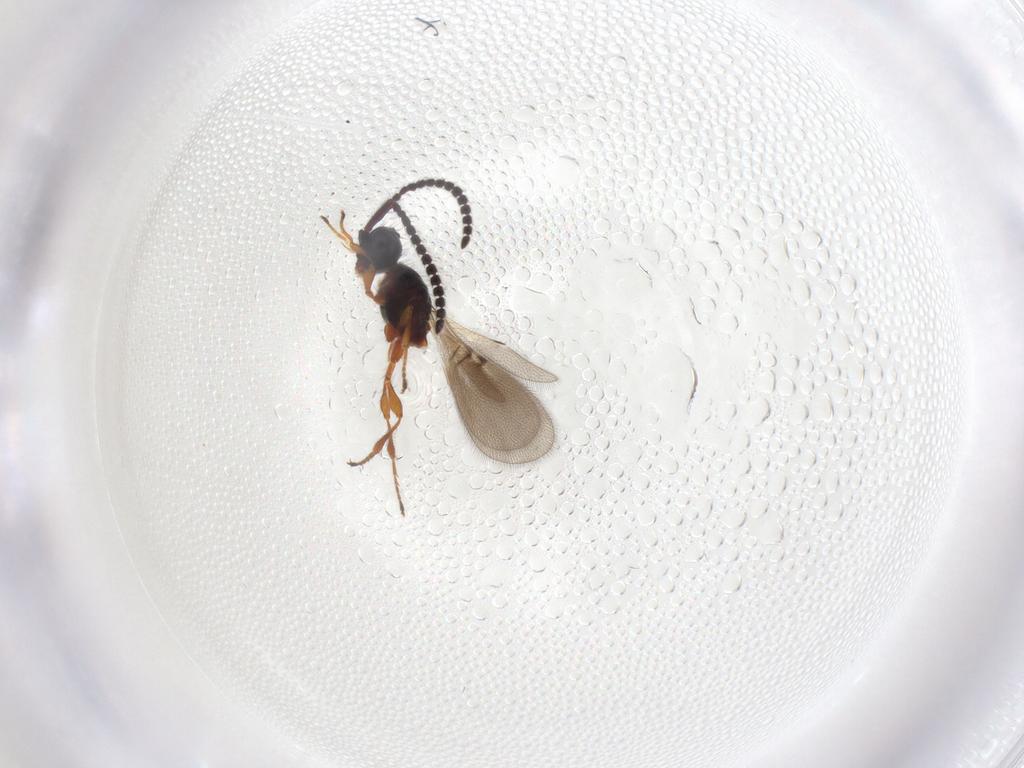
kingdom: Animalia
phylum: Arthropoda
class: Insecta
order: Hymenoptera
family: Diapriidae
